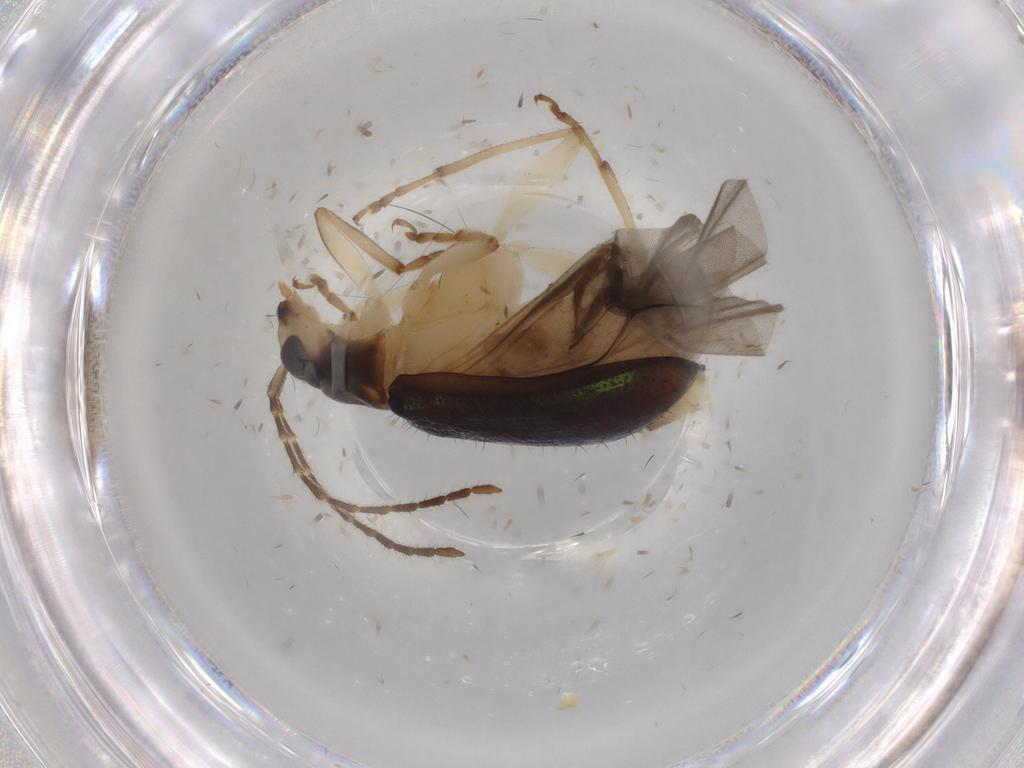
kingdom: Animalia
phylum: Arthropoda
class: Insecta
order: Coleoptera
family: Chrysomelidae
